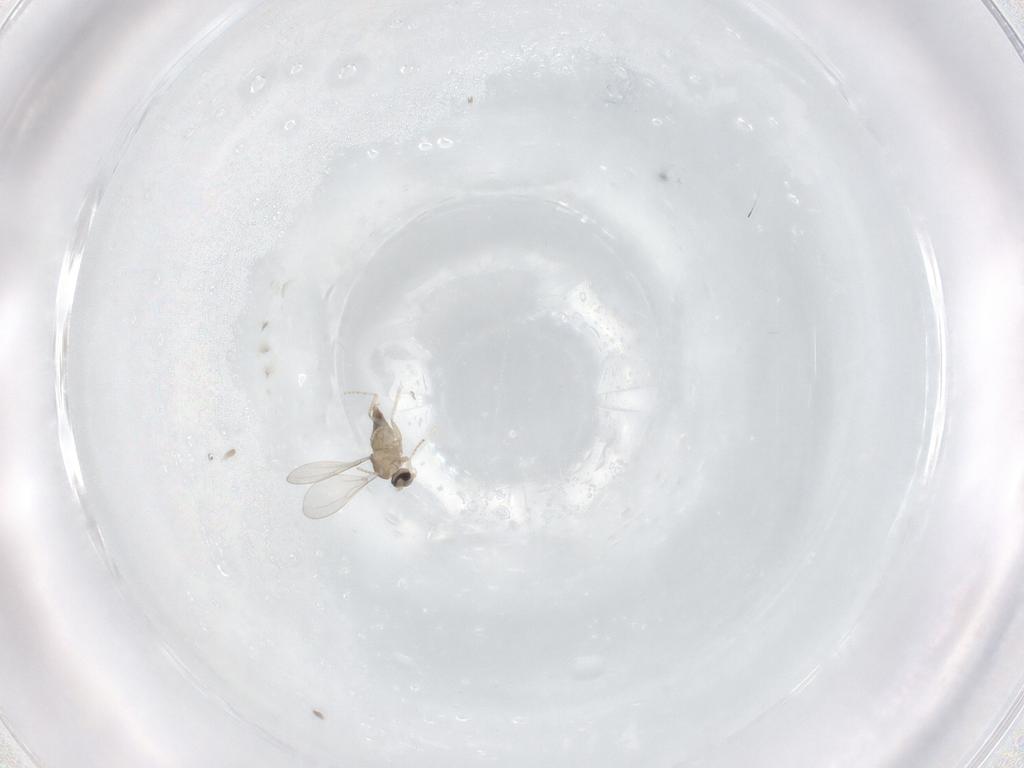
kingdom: Animalia
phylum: Arthropoda
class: Insecta
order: Diptera
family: Cecidomyiidae
